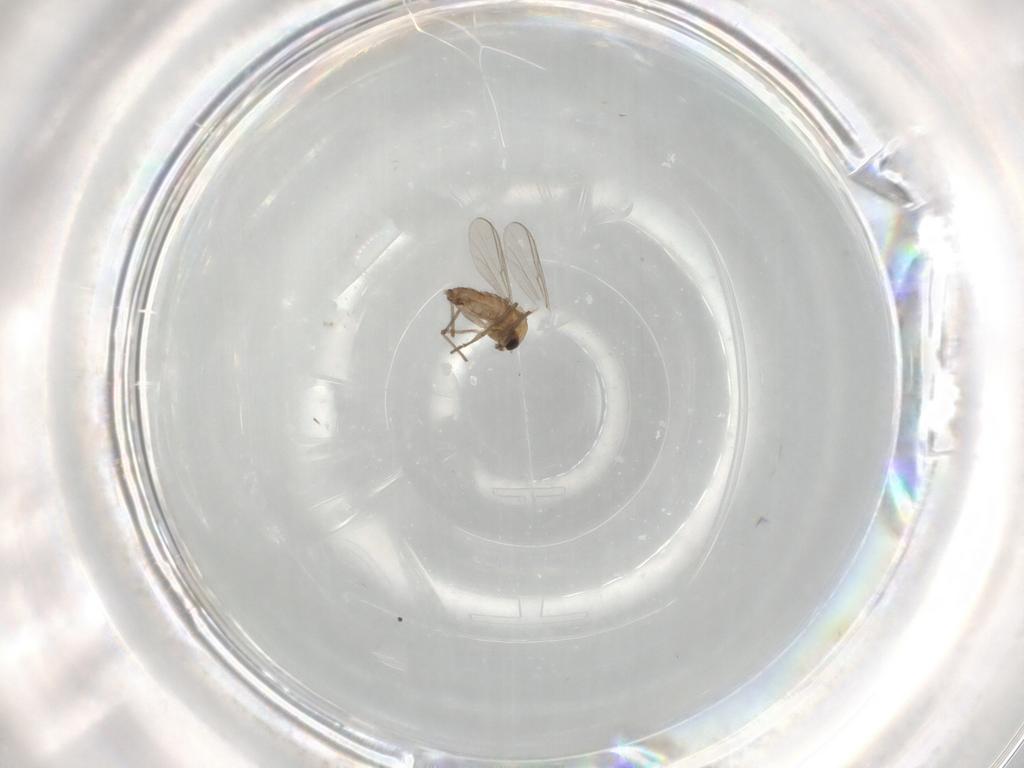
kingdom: Animalia
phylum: Arthropoda
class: Insecta
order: Diptera
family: Chironomidae
